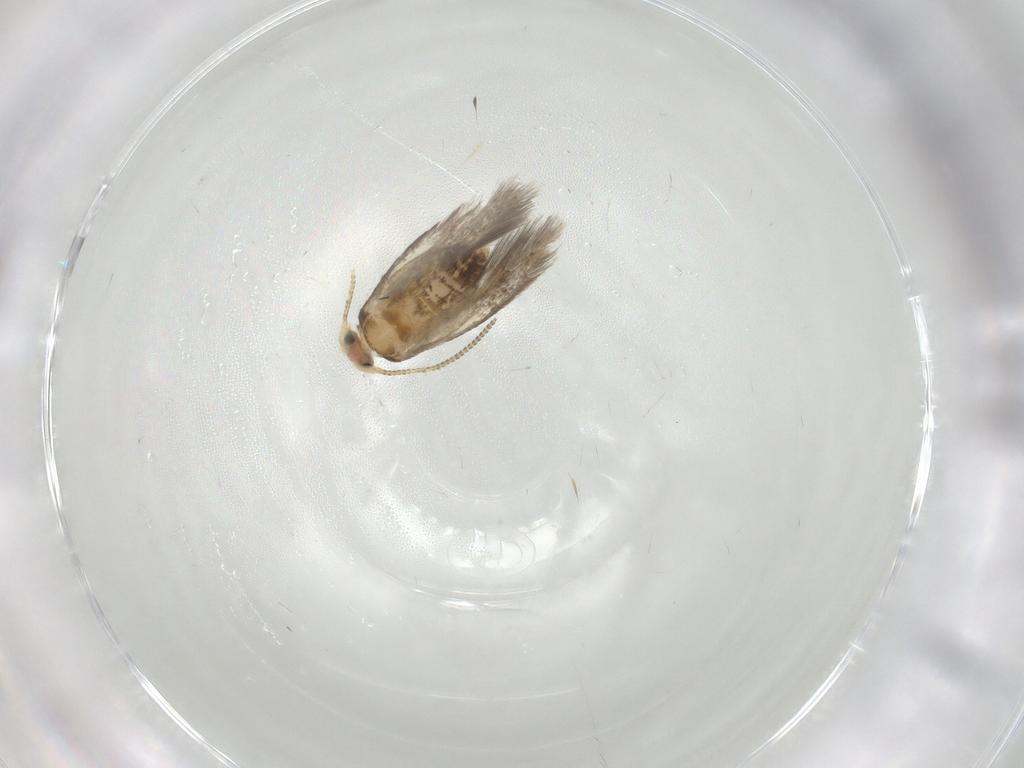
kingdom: Animalia
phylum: Arthropoda
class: Insecta
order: Lepidoptera
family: Nepticulidae
